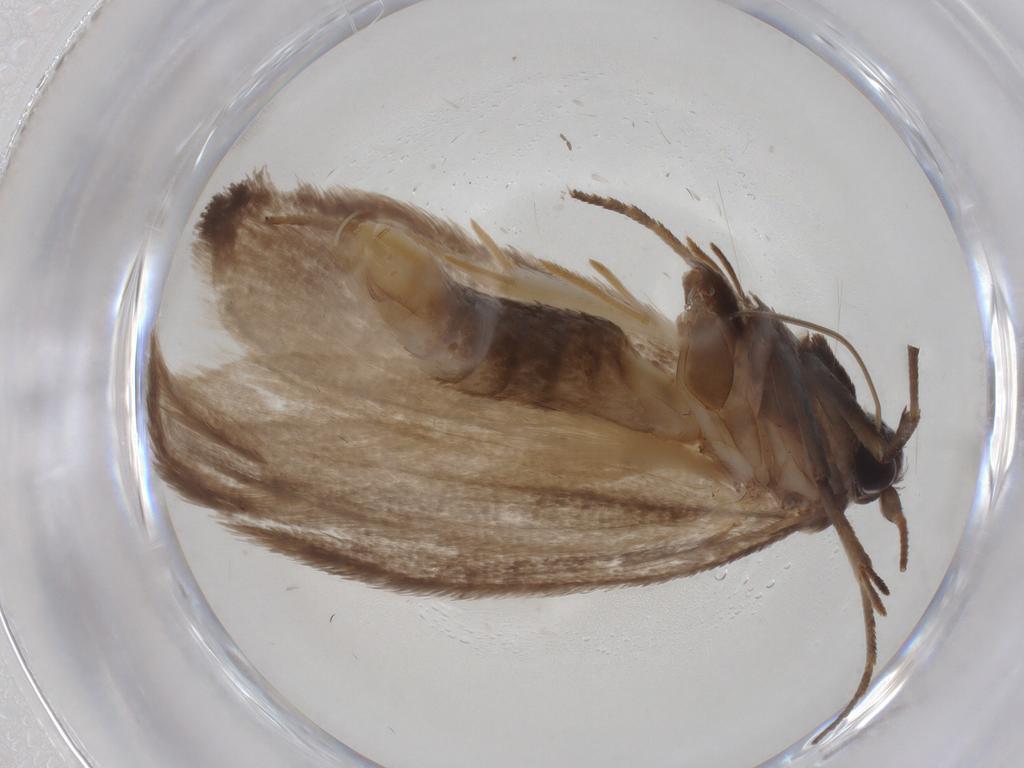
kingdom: Animalia
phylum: Arthropoda
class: Insecta
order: Lepidoptera
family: Roeslerstammiidae
